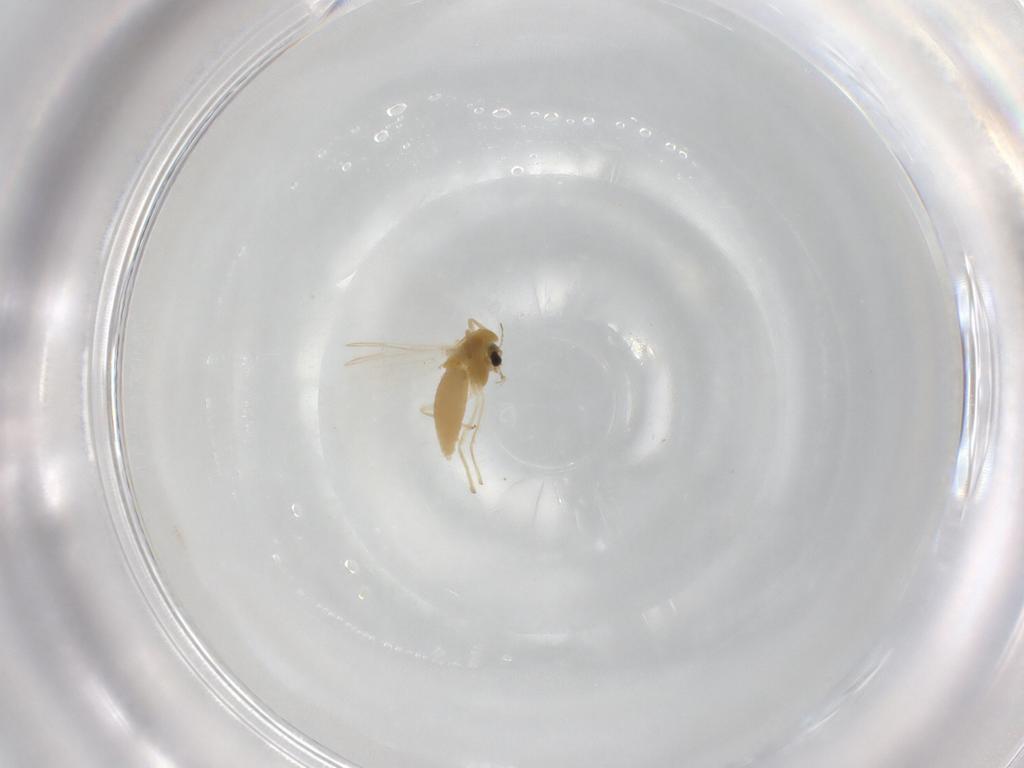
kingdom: Animalia
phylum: Arthropoda
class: Insecta
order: Diptera
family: Chironomidae
